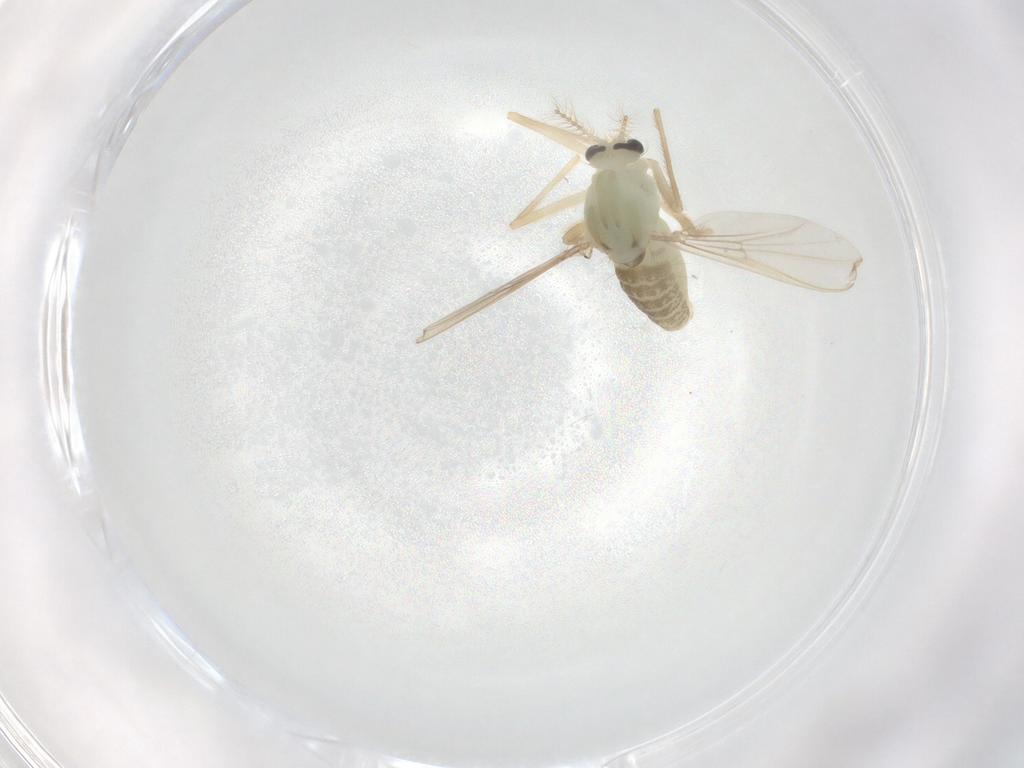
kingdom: Animalia
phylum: Arthropoda
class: Insecta
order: Diptera
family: Chironomidae
